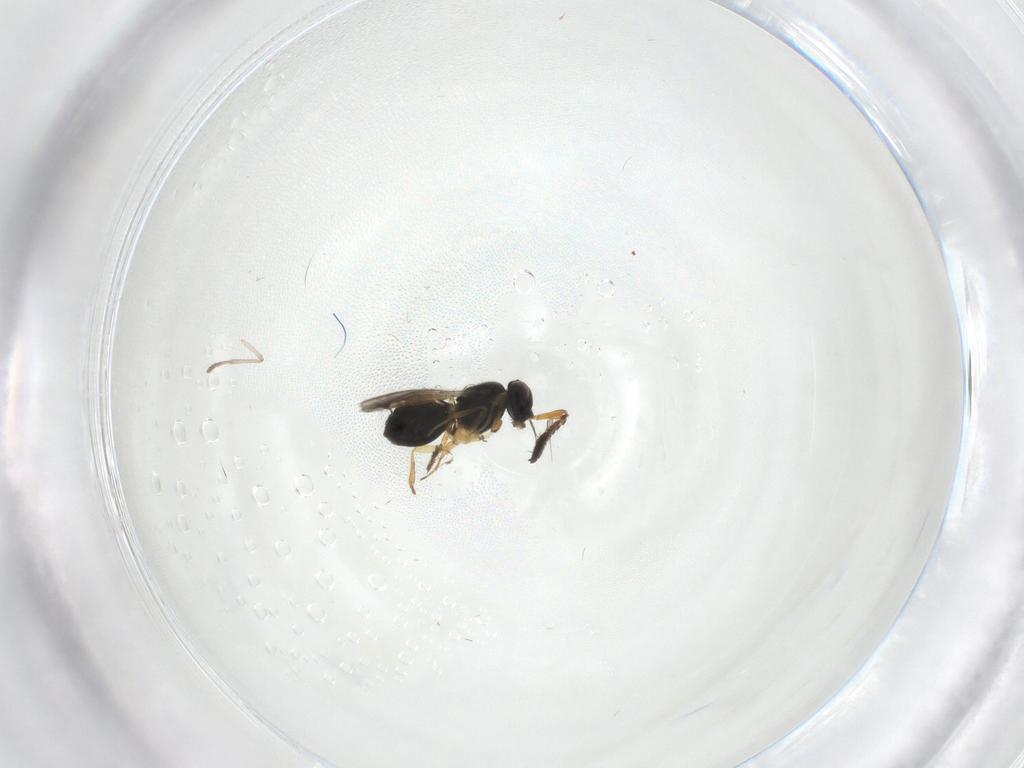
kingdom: Animalia
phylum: Arthropoda
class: Insecta
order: Hymenoptera
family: Scelionidae
